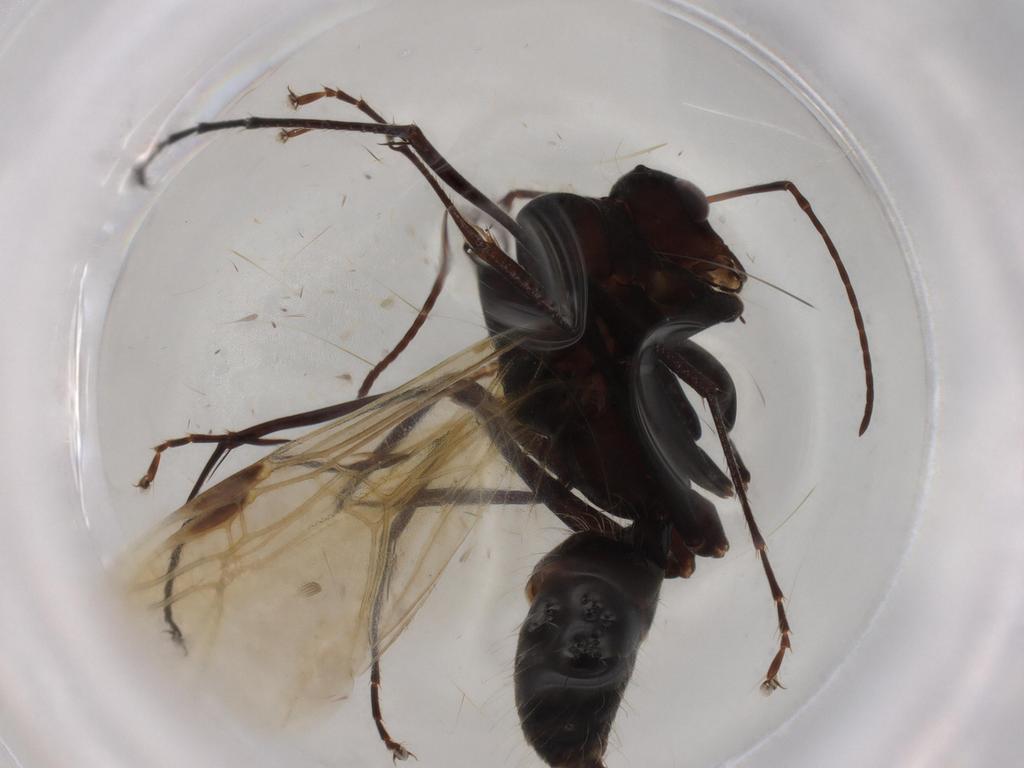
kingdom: Animalia
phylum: Arthropoda
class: Insecta
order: Hymenoptera
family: Formicidae
